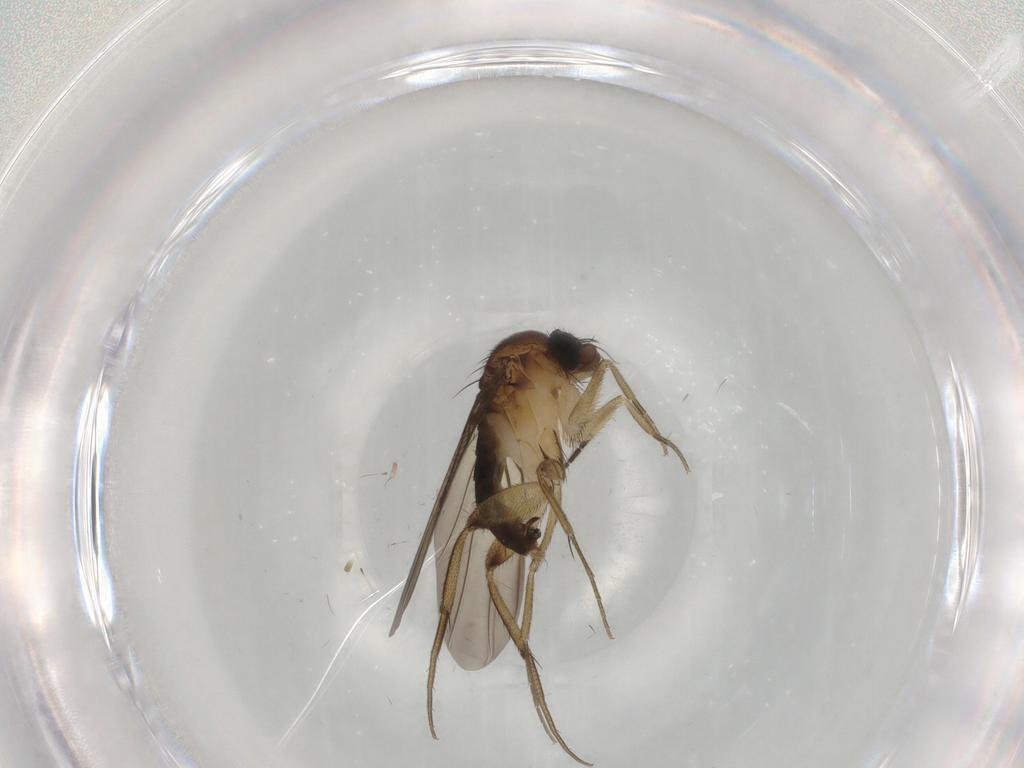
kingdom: Animalia
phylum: Arthropoda
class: Insecta
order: Diptera
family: Sciaridae
